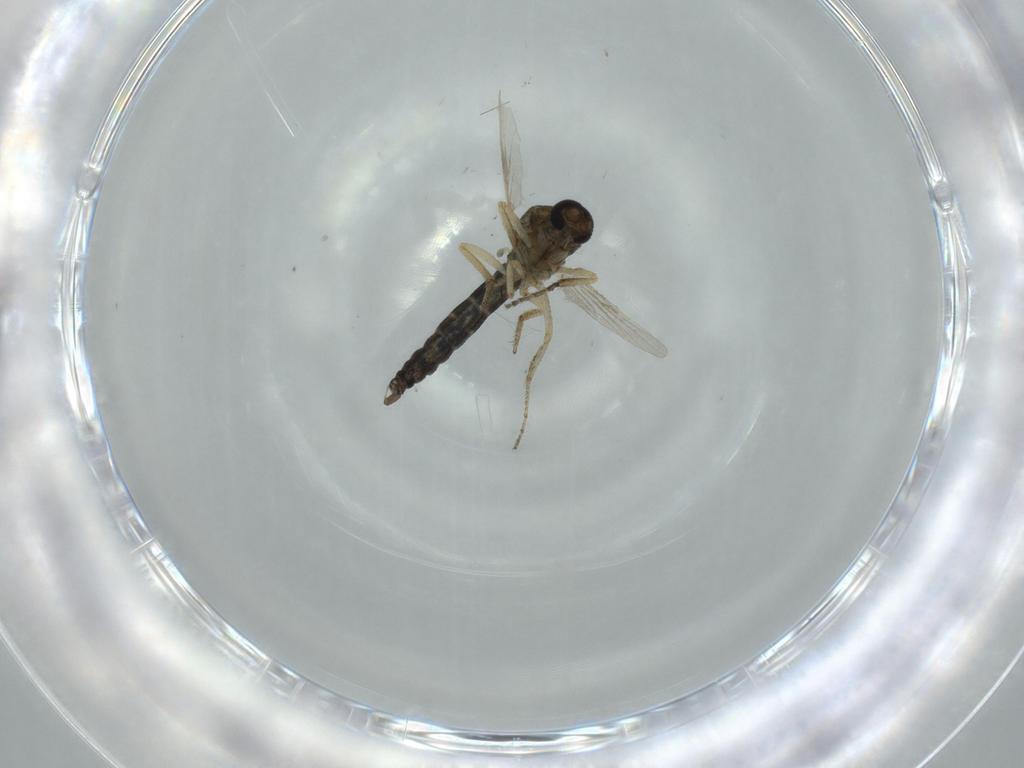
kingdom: Animalia
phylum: Arthropoda
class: Insecta
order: Diptera
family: Ceratopogonidae
